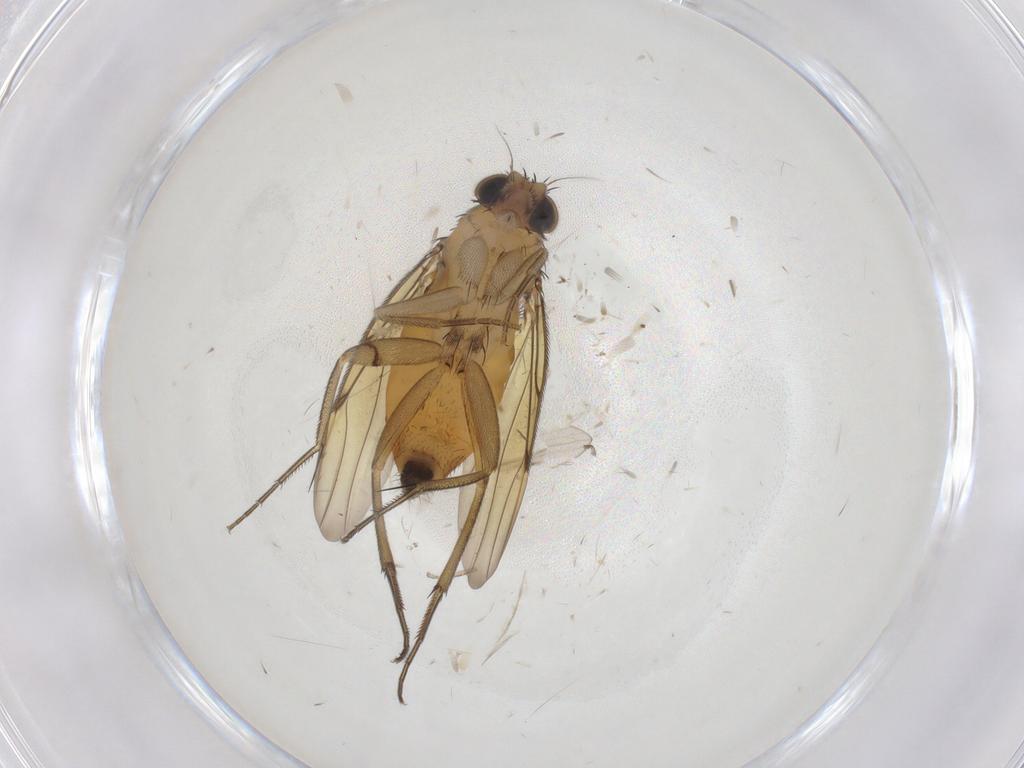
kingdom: Animalia
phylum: Arthropoda
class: Insecta
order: Diptera
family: Phoridae
